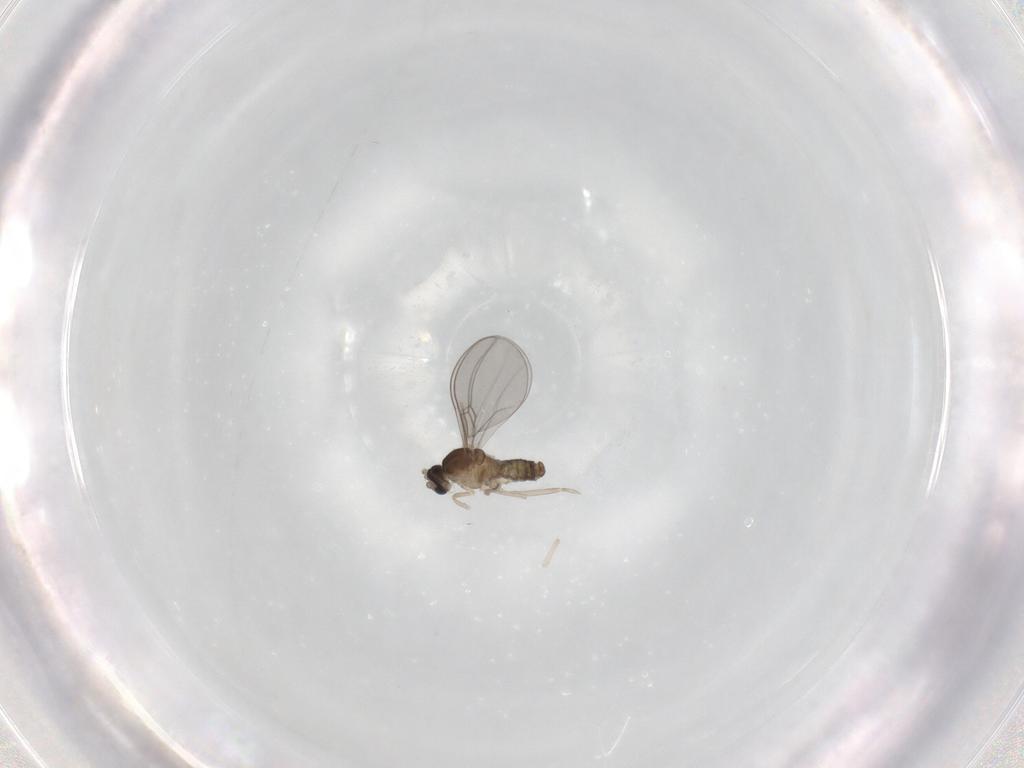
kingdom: Animalia
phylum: Arthropoda
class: Insecta
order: Diptera
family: Cecidomyiidae
